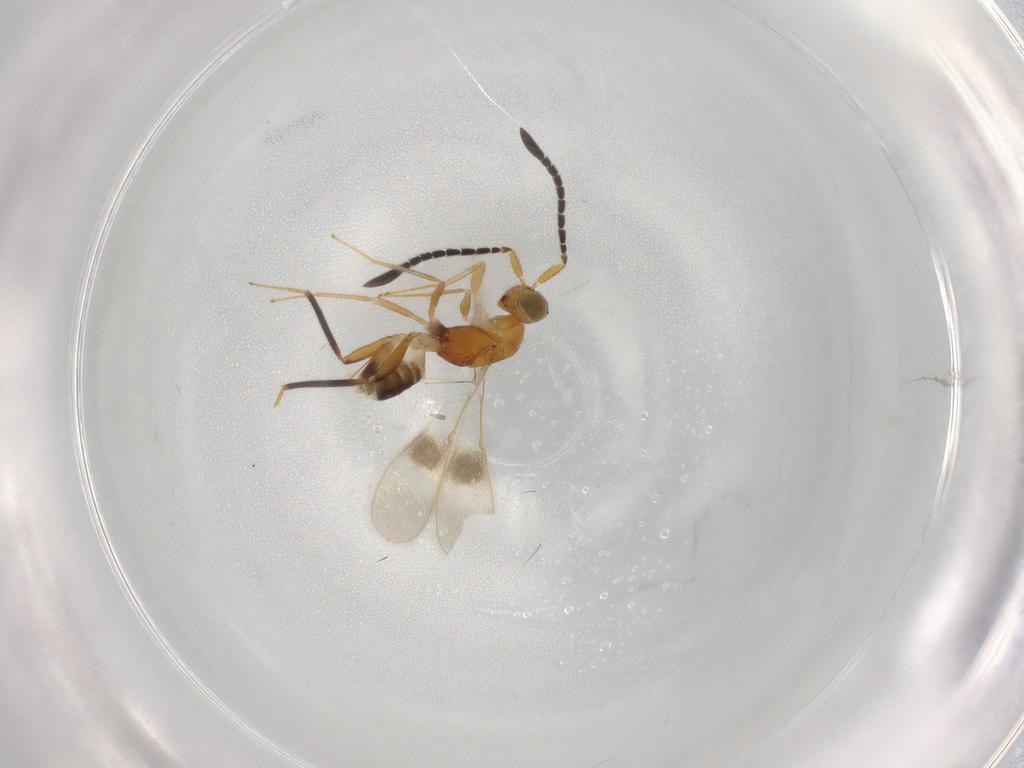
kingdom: Animalia
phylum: Arthropoda
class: Insecta
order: Hymenoptera
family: Mymaridae
